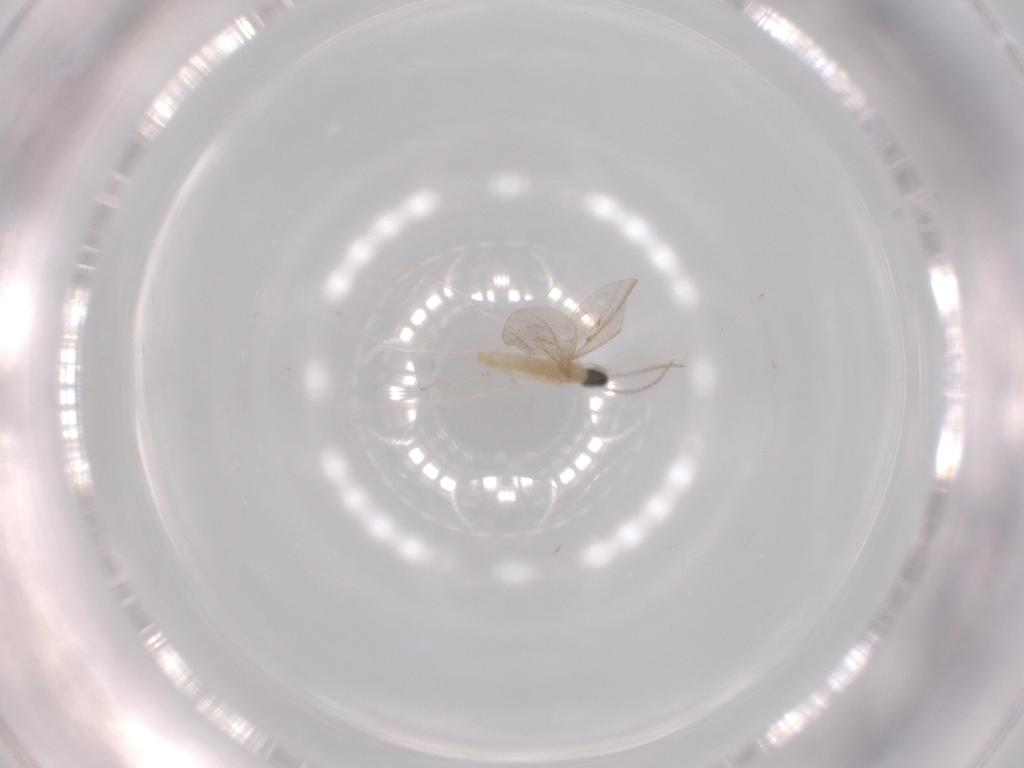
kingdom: Animalia
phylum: Arthropoda
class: Insecta
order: Diptera
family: Cecidomyiidae
